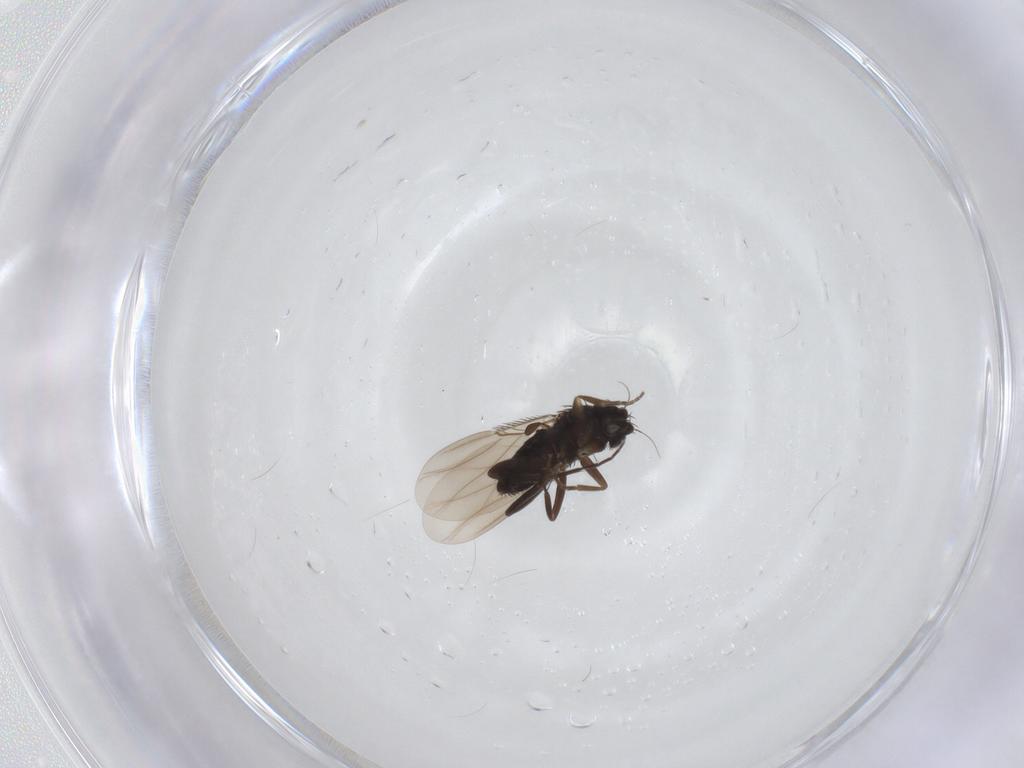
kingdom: Animalia
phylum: Arthropoda
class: Insecta
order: Diptera
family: Phoridae
